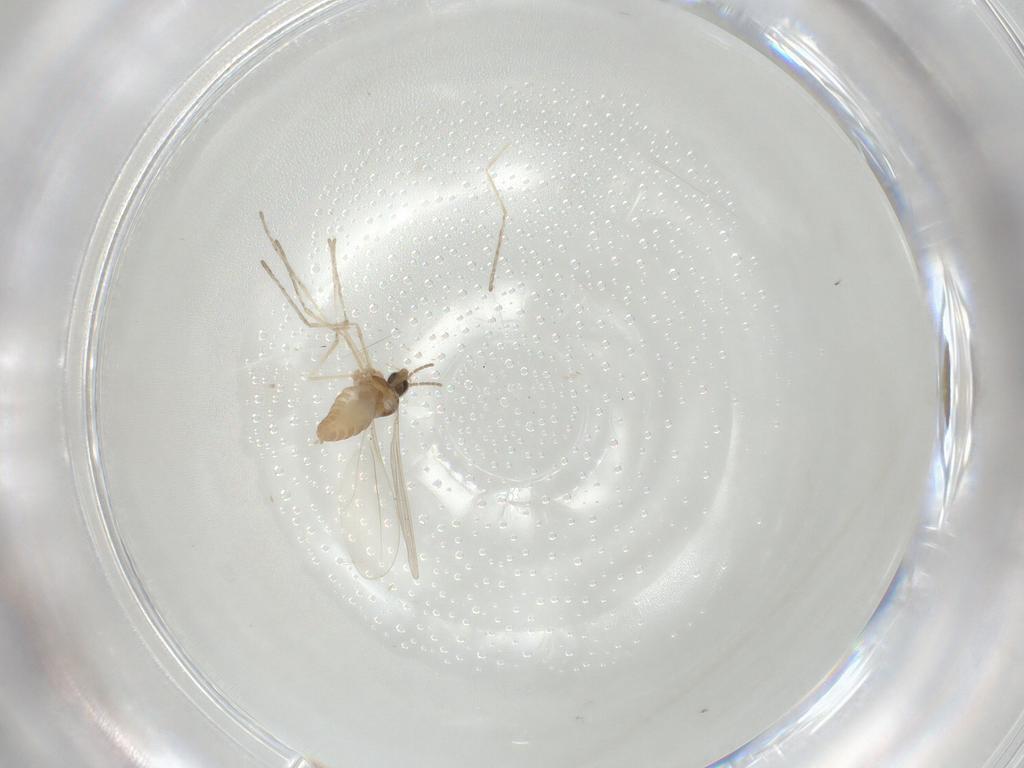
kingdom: Animalia
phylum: Arthropoda
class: Insecta
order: Diptera
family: Cecidomyiidae
